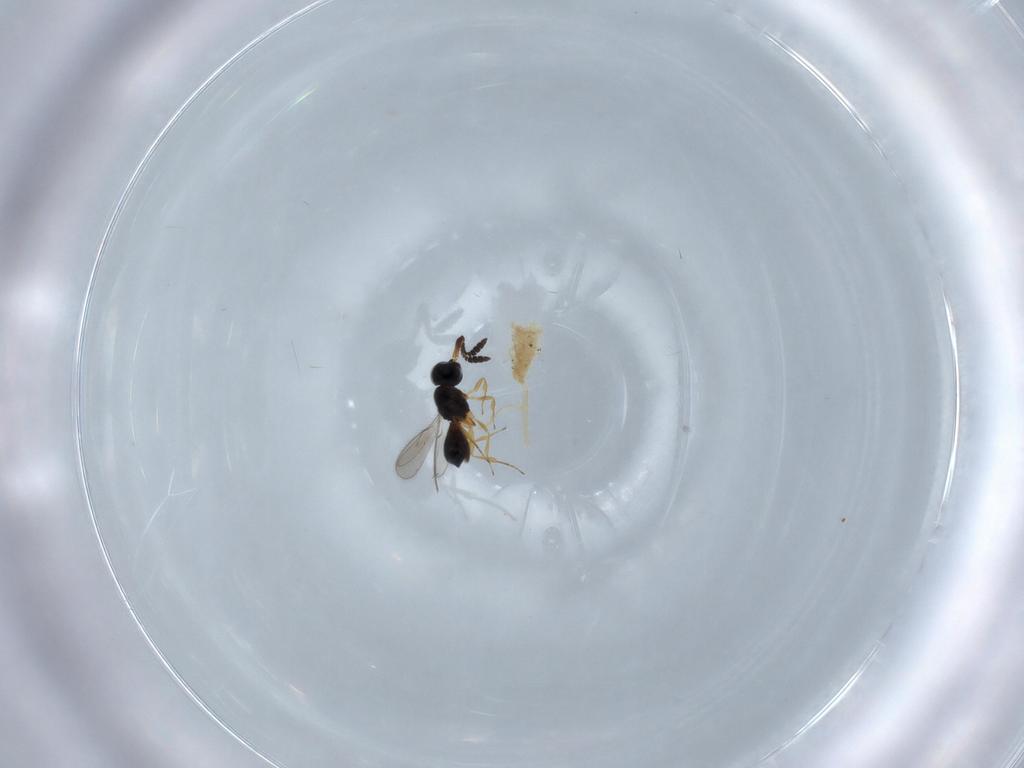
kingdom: Animalia
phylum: Arthropoda
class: Insecta
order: Hymenoptera
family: Scelionidae
